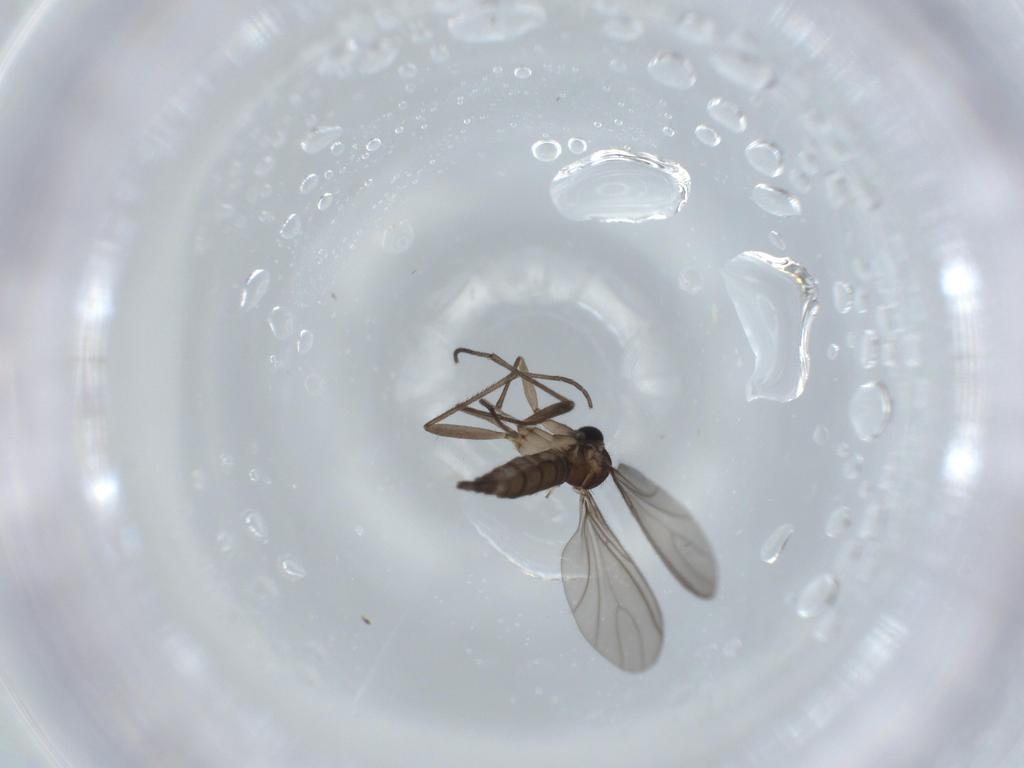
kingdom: Animalia
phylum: Arthropoda
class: Insecta
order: Diptera
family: Sciaridae
